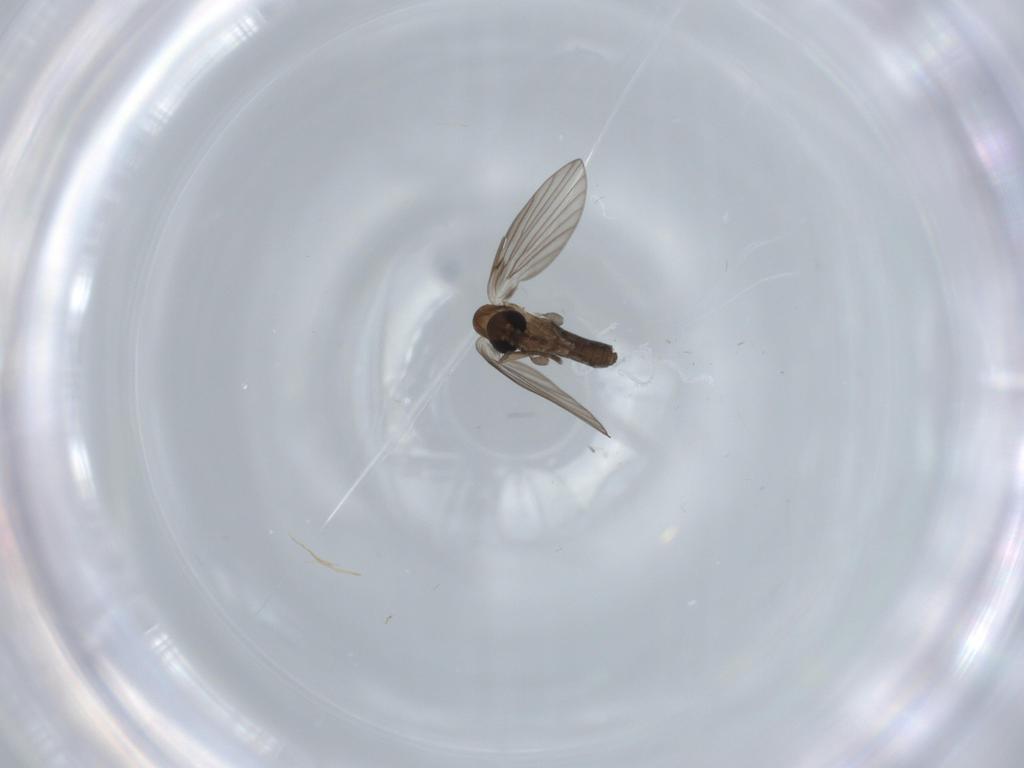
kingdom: Animalia
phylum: Arthropoda
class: Insecta
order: Diptera
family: Psychodidae
